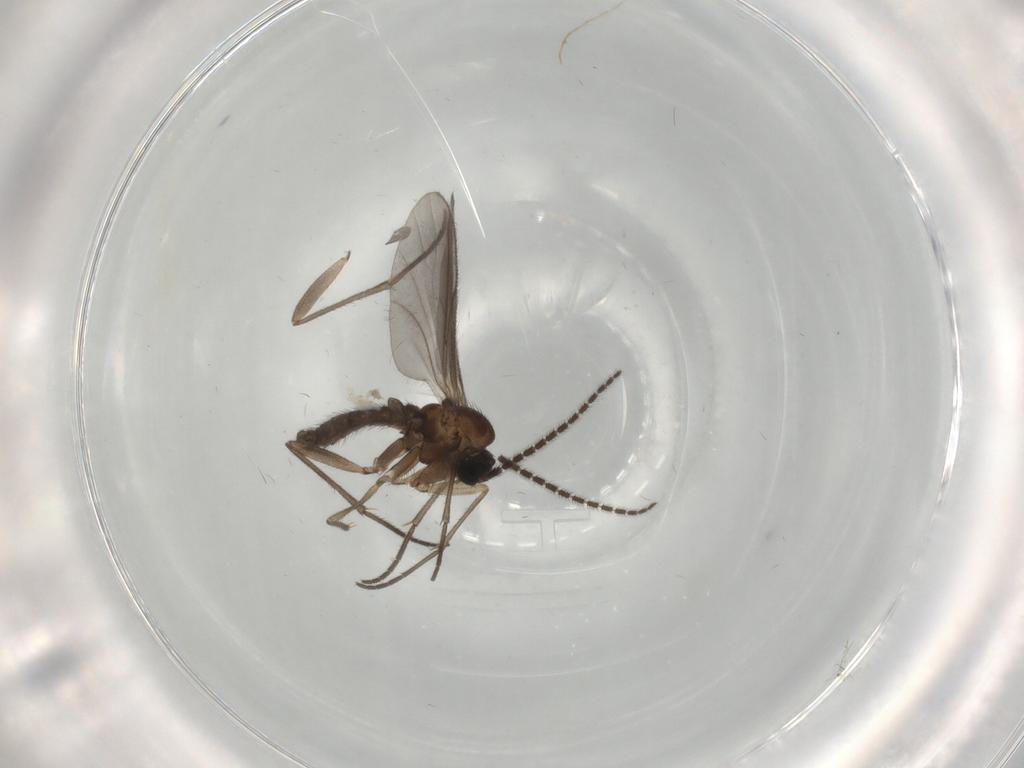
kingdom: Animalia
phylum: Arthropoda
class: Insecta
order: Diptera
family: Sciaridae
